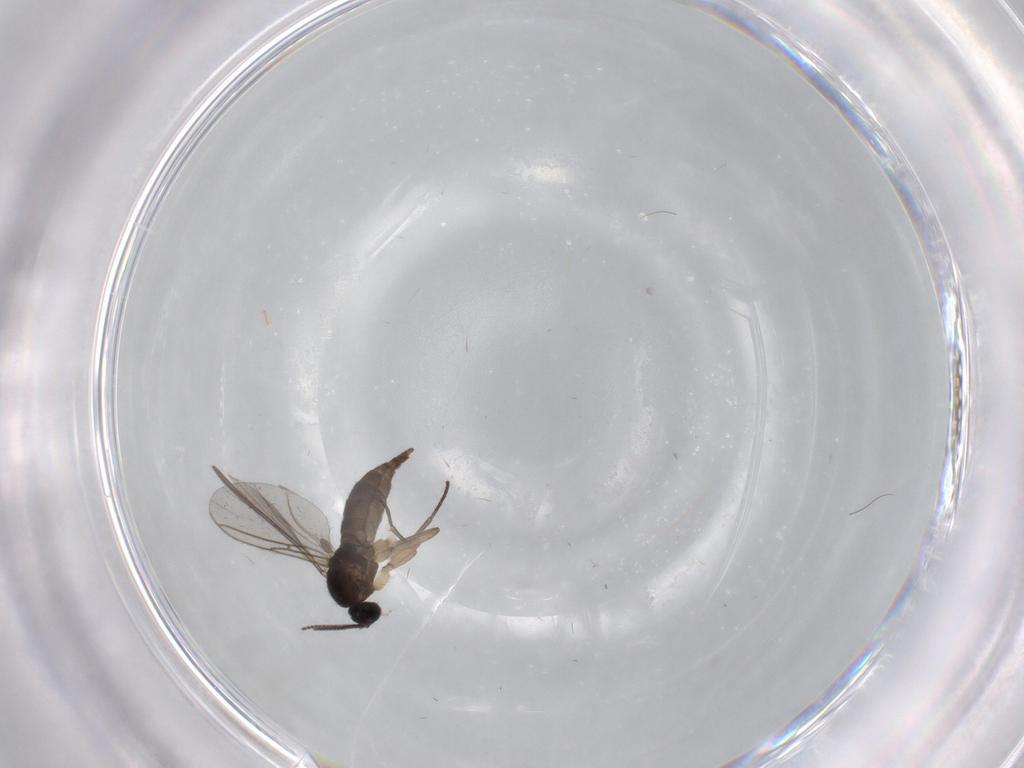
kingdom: Animalia
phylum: Arthropoda
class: Insecta
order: Diptera
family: Sciaridae
